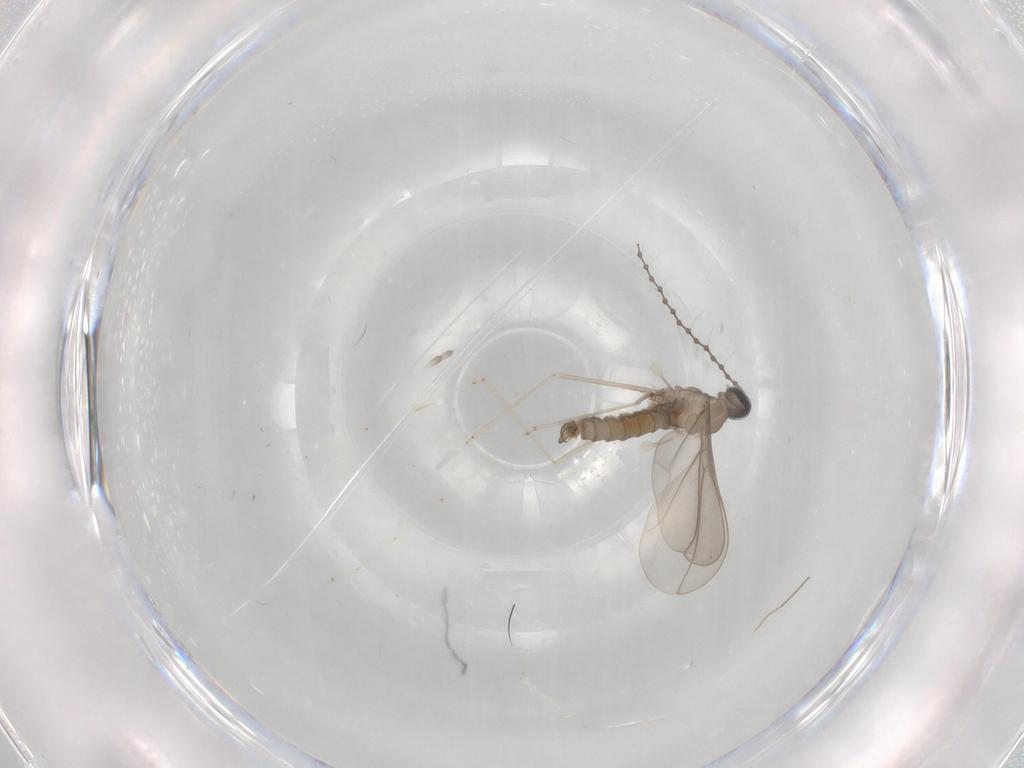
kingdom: Animalia
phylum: Arthropoda
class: Insecta
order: Diptera
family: Cecidomyiidae
